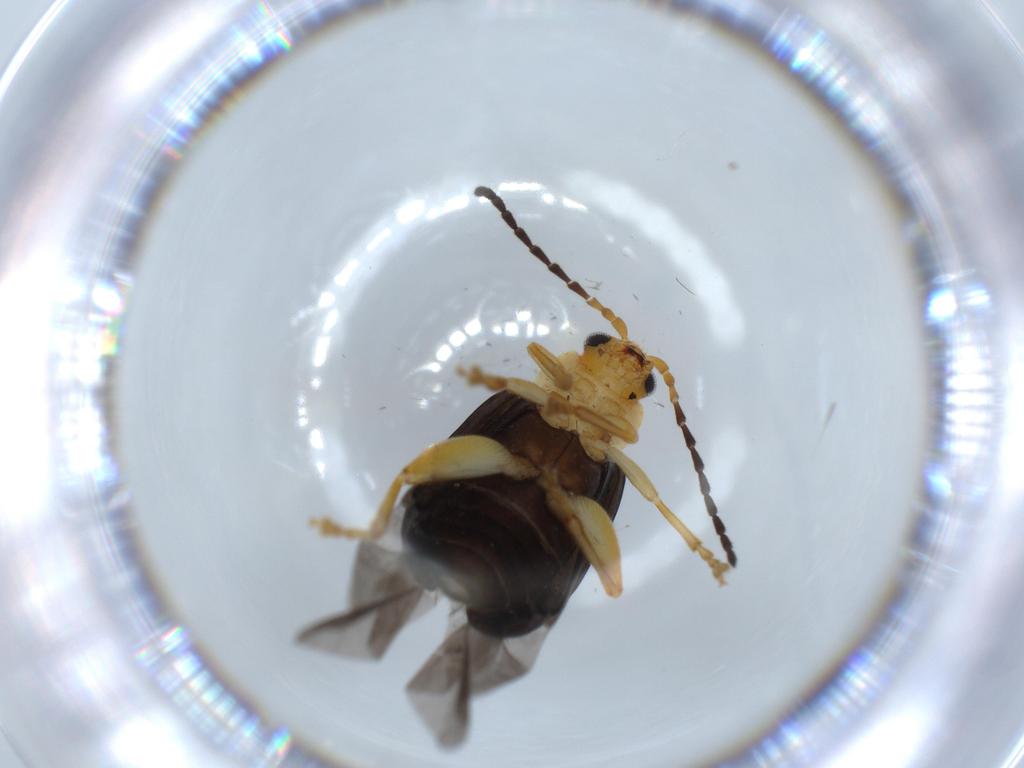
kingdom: Animalia
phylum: Arthropoda
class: Insecta
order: Coleoptera
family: Chrysomelidae
